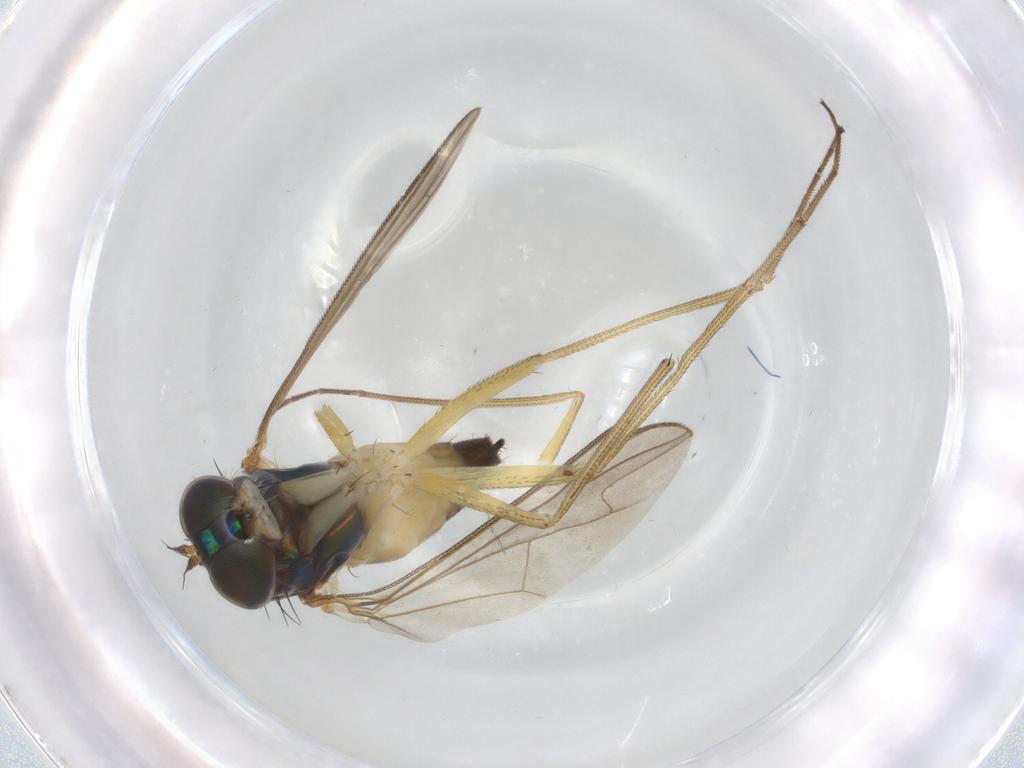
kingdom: Animalia
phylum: Arthropoda
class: Insecta
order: Diptera
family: Dolichopodidae
